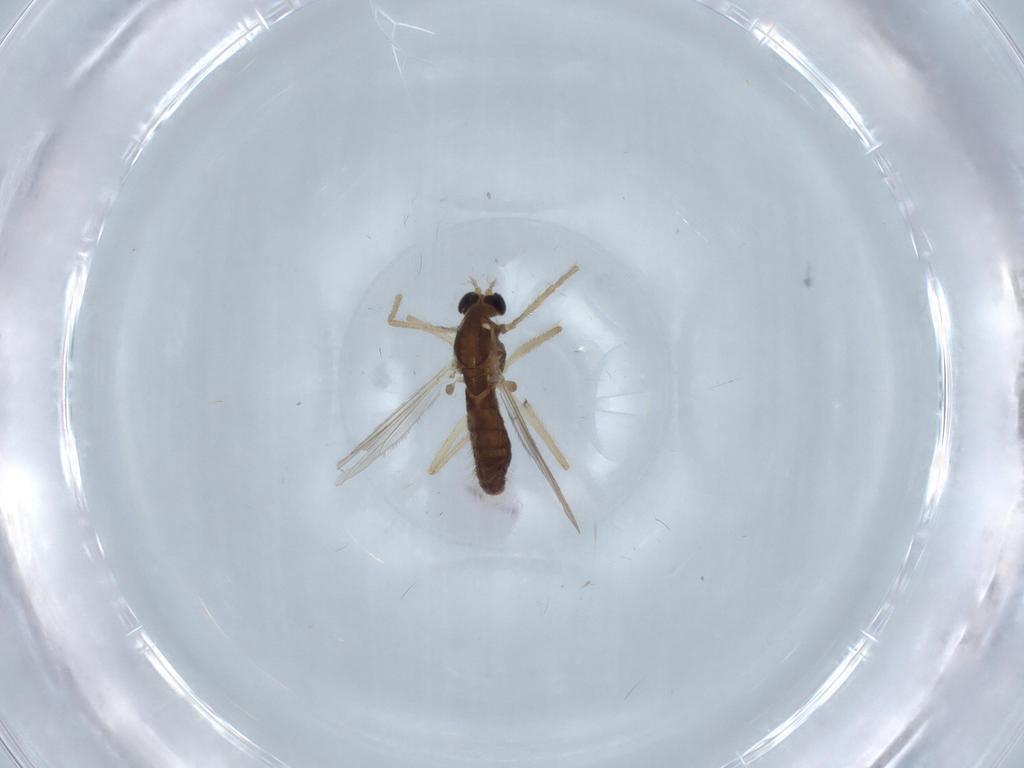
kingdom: Animalia
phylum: Arthropoda
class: Insecta
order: Diptera
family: Chironomidae
